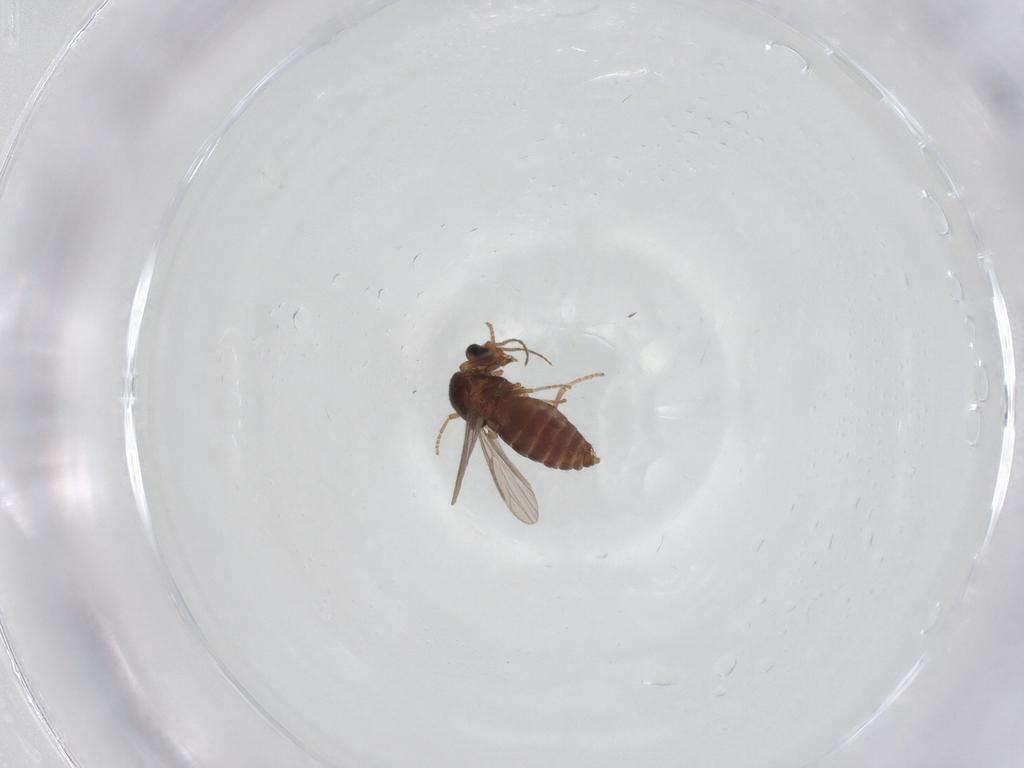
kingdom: Animalia
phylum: Arthropoda
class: Insecta
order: Diptera
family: Ceratopogonidae
